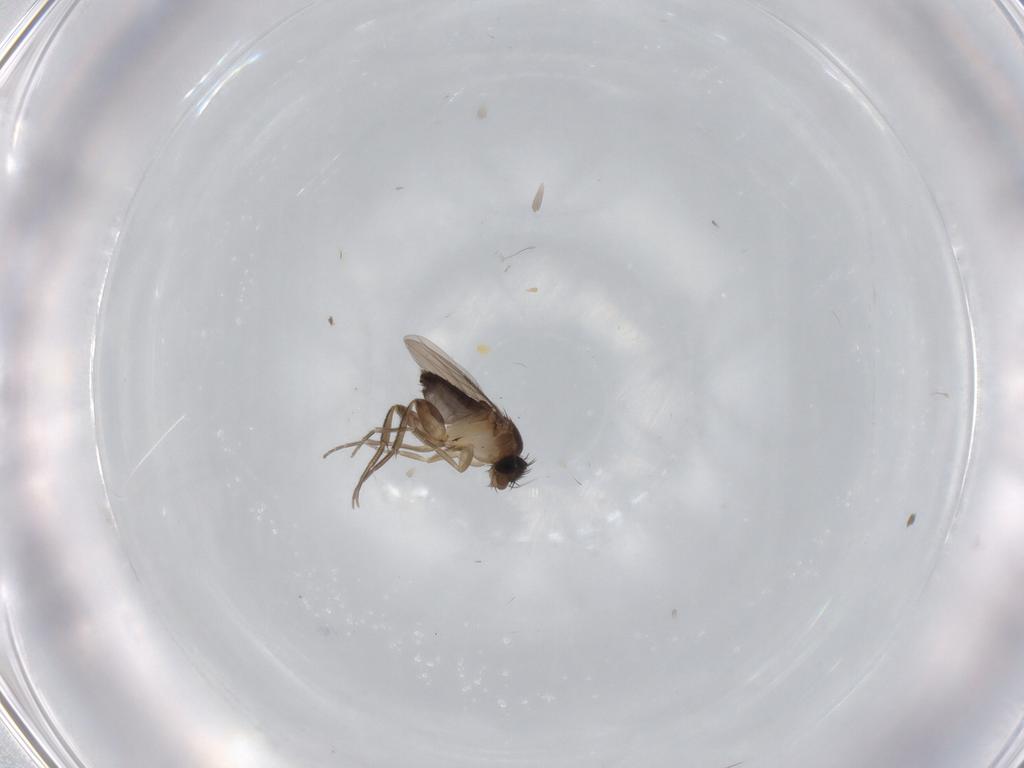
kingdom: Animalia
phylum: Arthropoda
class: Insecta
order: Diptera
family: Phoridae
